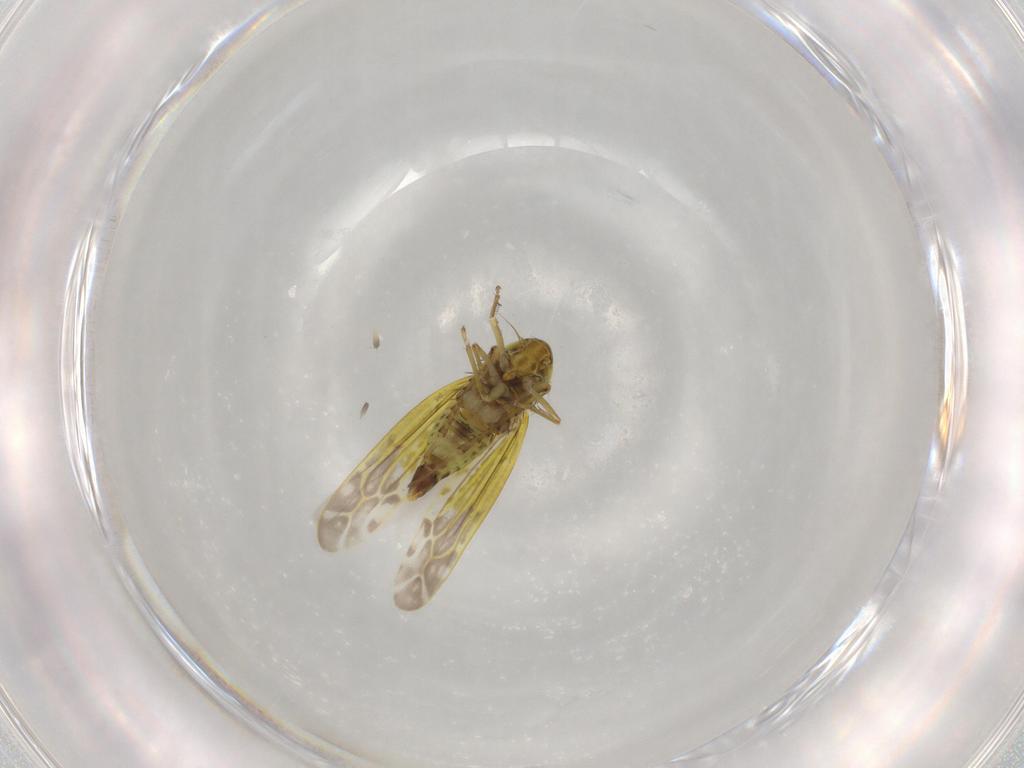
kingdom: Animalia
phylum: Arthropoda
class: Insecta
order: Hemiptera
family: Cicadellidae
